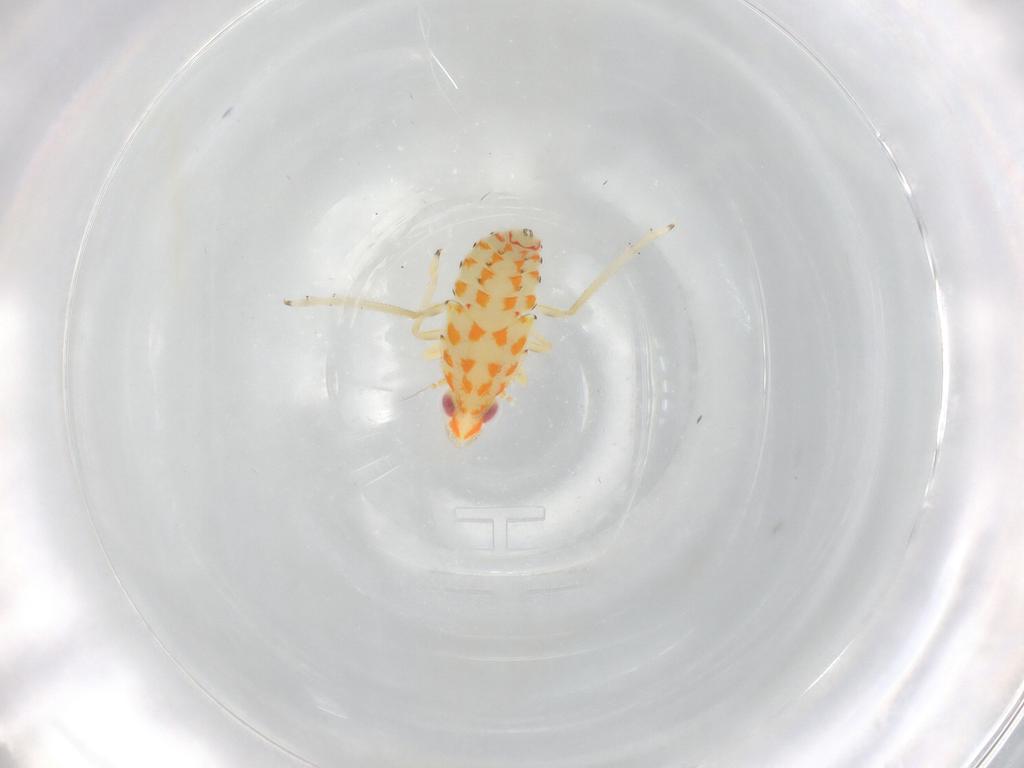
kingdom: Animalia
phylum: Arthropoda
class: Insecta
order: Hemiptera
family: Tropiduchidae
